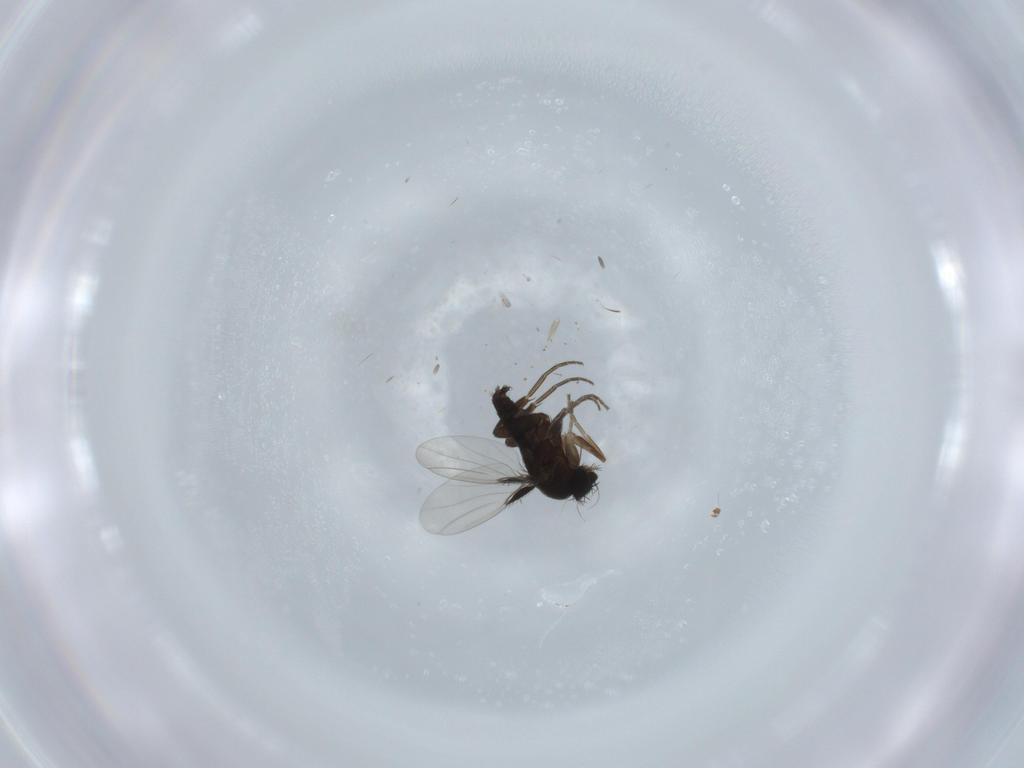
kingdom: Animalia
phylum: Arthropoda
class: Insecta
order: Diptera
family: Phoridae
